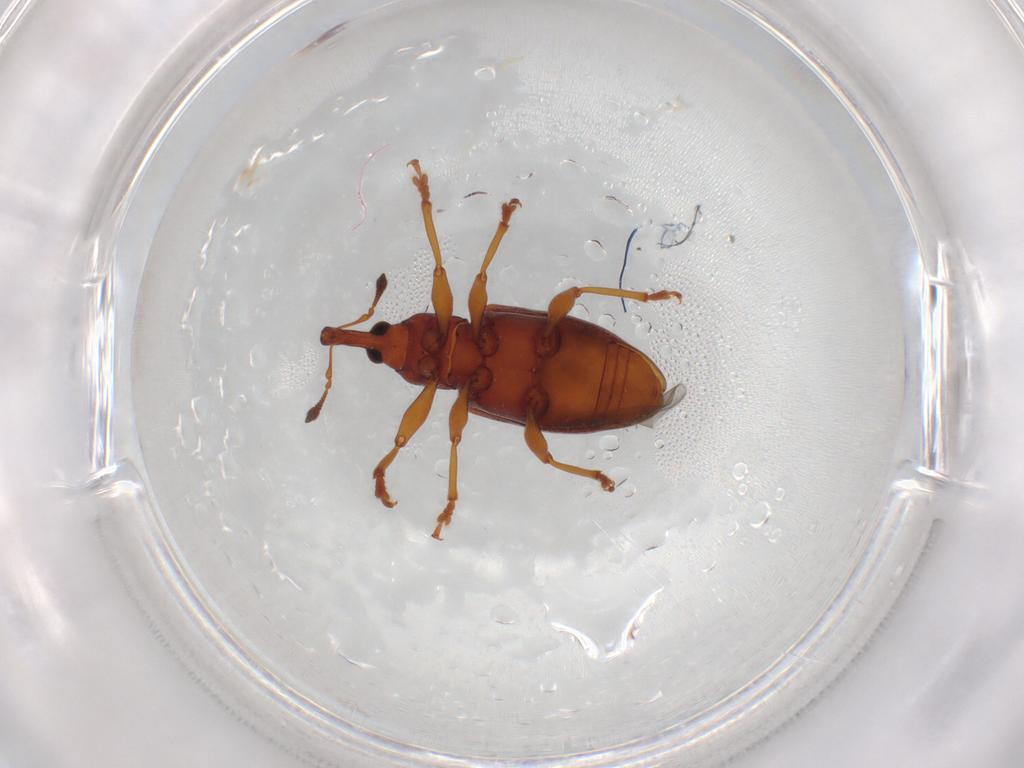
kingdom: Animalia
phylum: Arthropoda
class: Insecta
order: Coleoptera
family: Curculionidae
